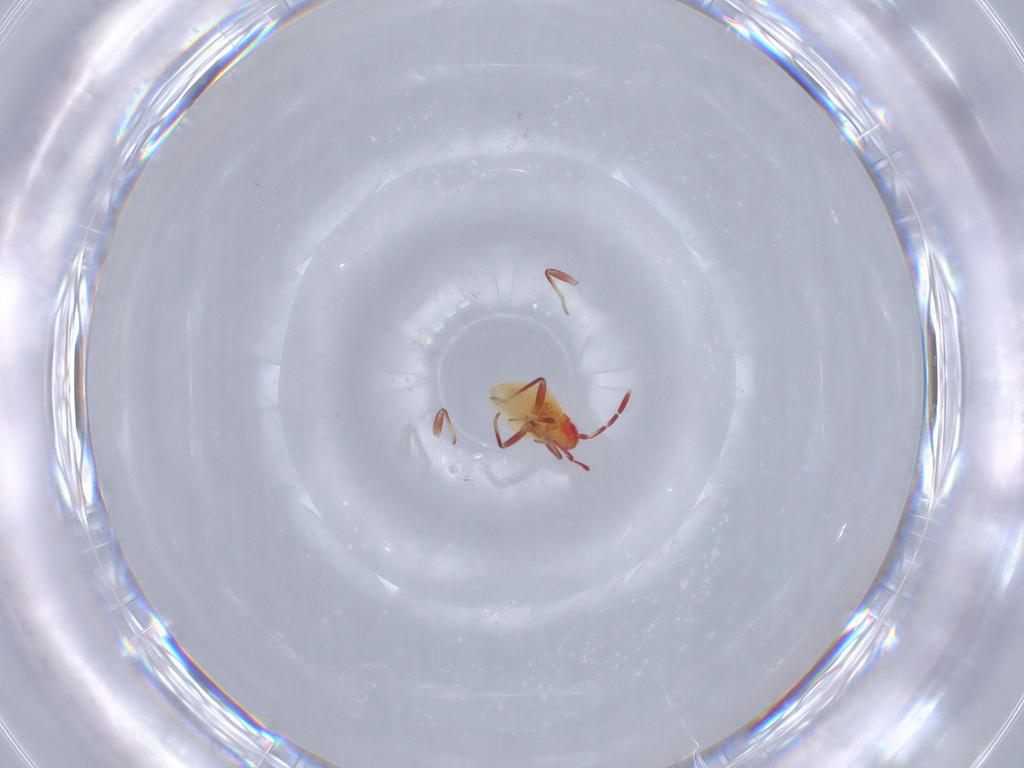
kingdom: Animalia
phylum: Arthropoda
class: Insecta
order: Hemiptera
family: Miridae
